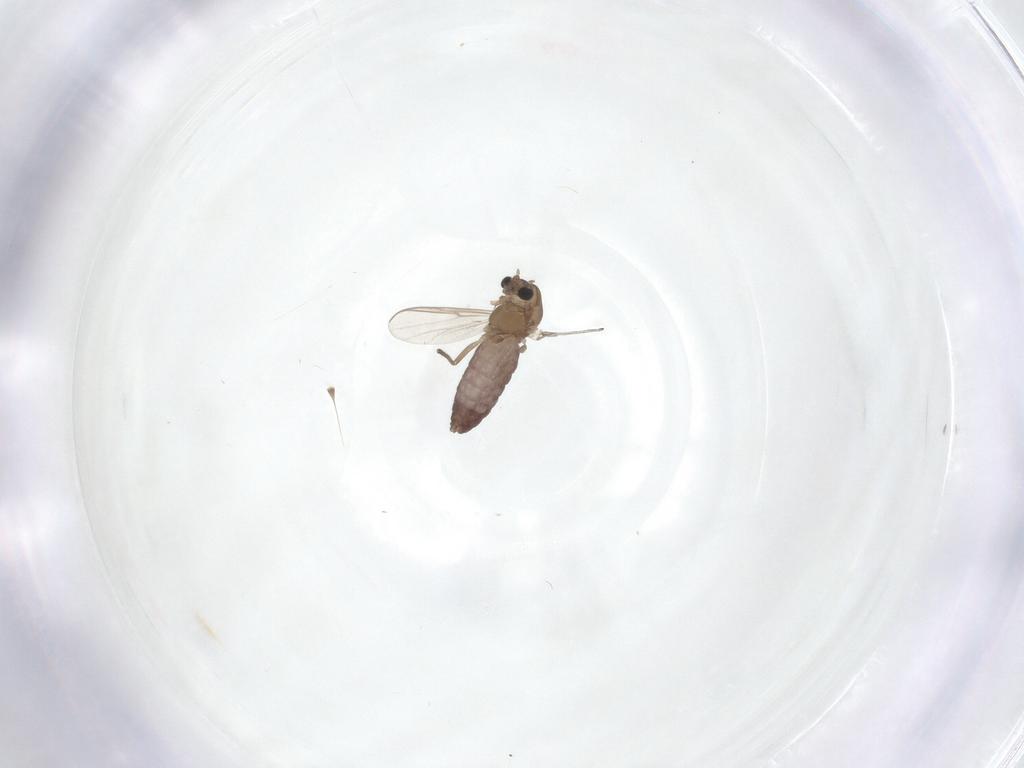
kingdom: Animalia
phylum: Arthropoda
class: Insecta
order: Diptera
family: Chironomidae
